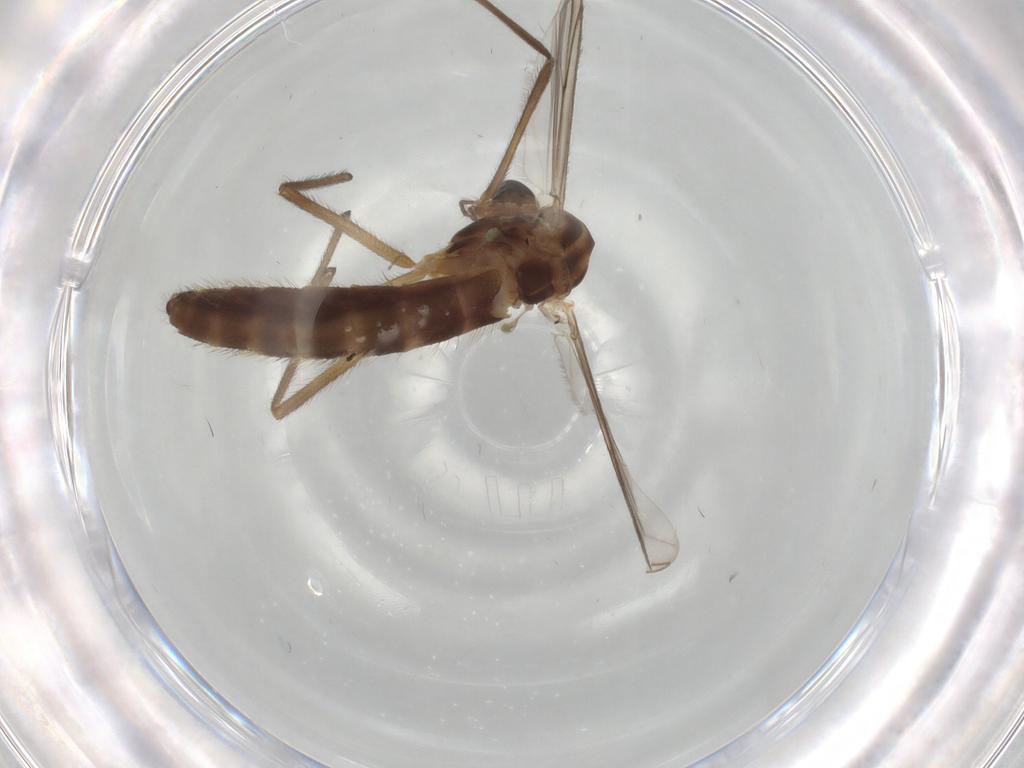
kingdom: Animalia
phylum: Arthropoda
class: Insecta
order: Diptera
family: Chironomidae
